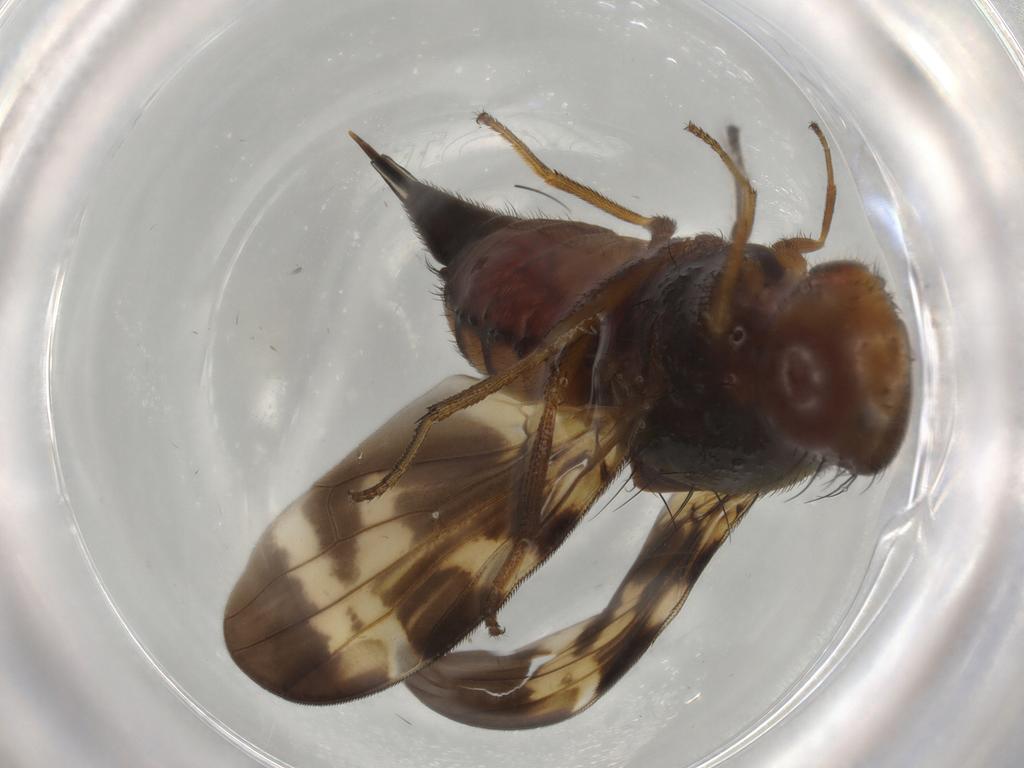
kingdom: Animalia
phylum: Arthropoda
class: Insecta
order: Diptera
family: Ulidiidae
